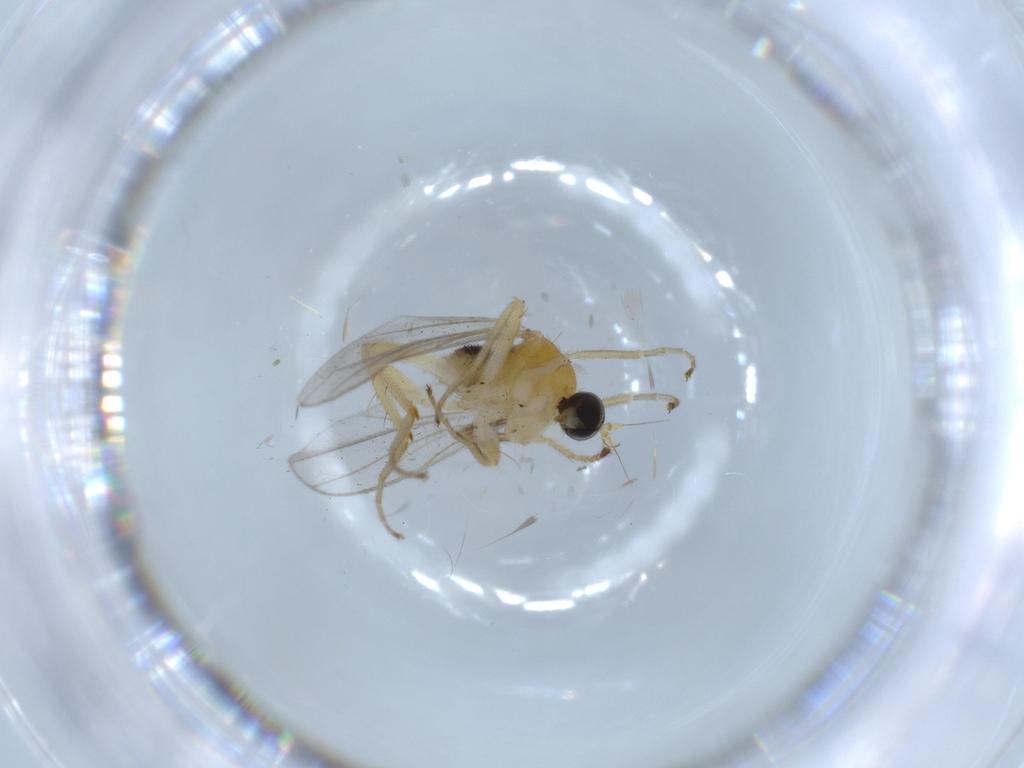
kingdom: Animalia
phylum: Arthropoda
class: Insecta
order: Diptera
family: Hybotidae
